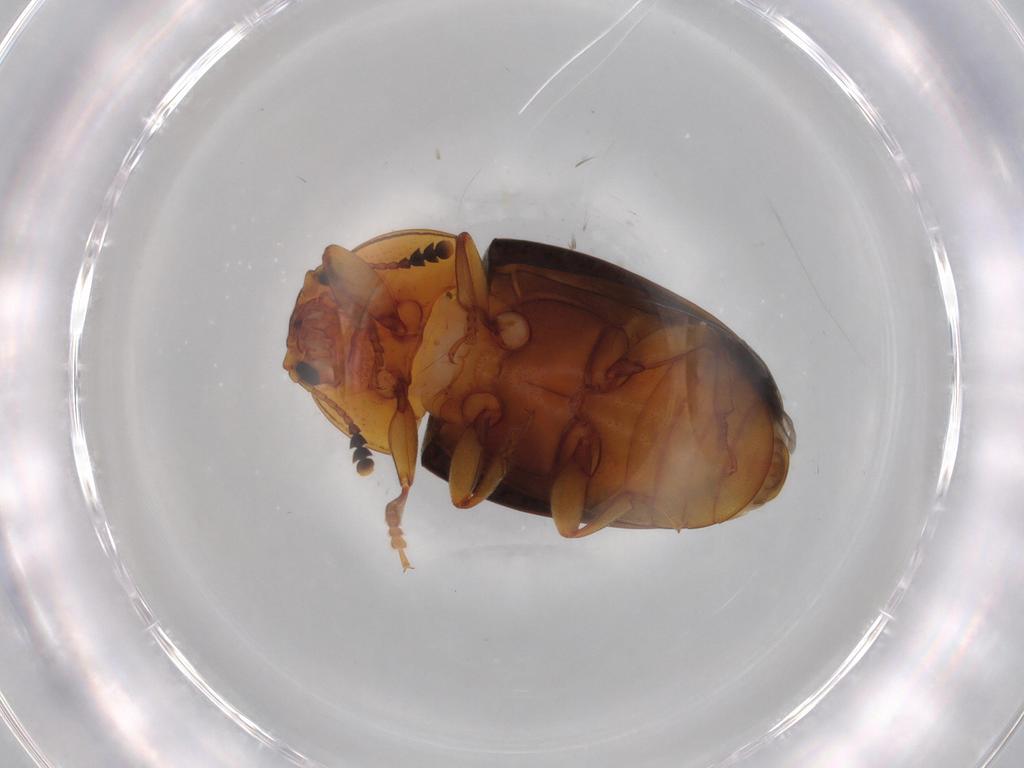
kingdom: Animalia
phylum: Arthropoda
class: Insecta
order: Coleoptera
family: Erotylidae
